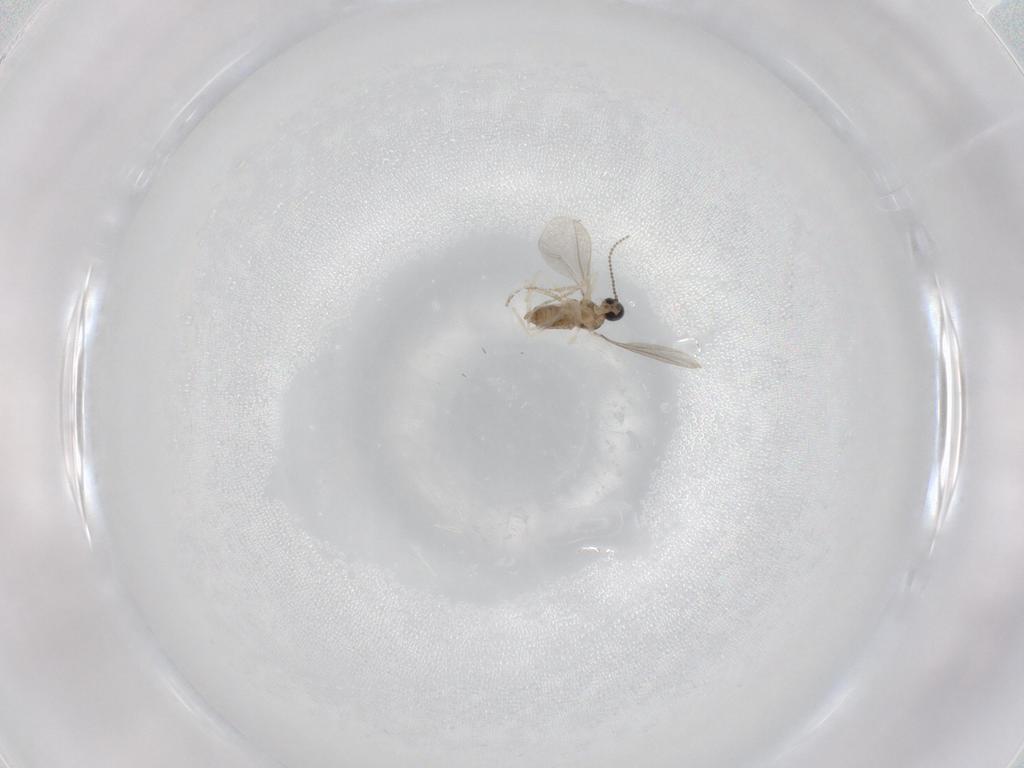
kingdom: Animalia
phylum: Arthropoda
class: Insecta
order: Diptera
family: Cecidomyiidae
